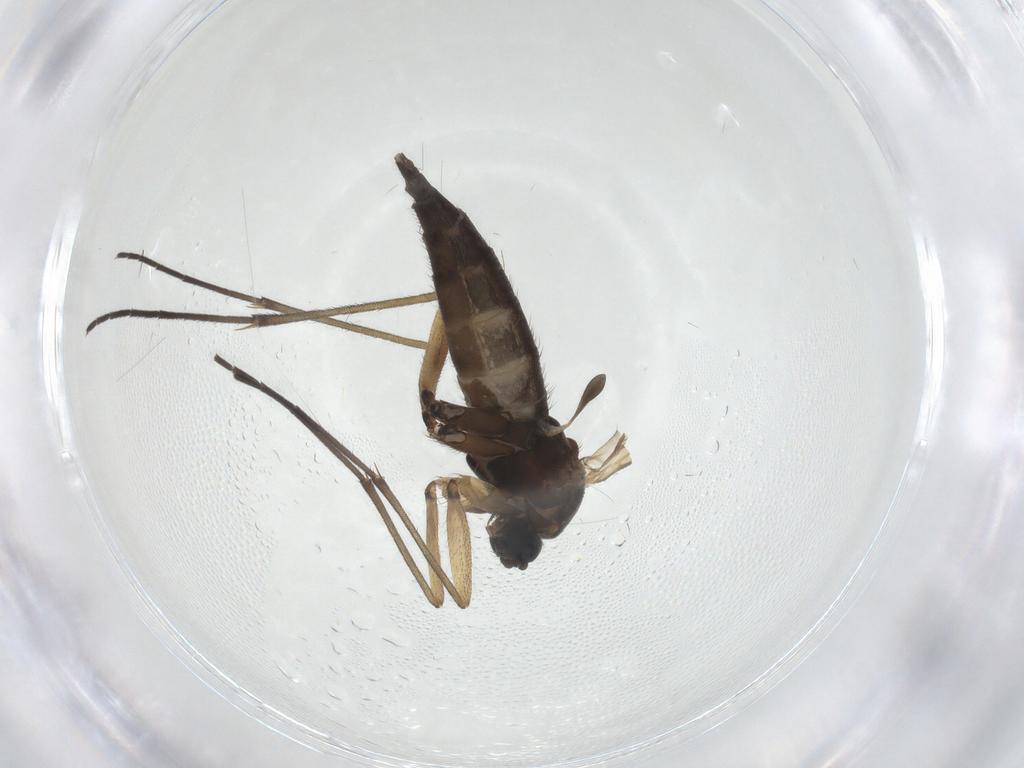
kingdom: Animalia
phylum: Arthropoda
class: Insecta
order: Diptera
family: Sciaridae
